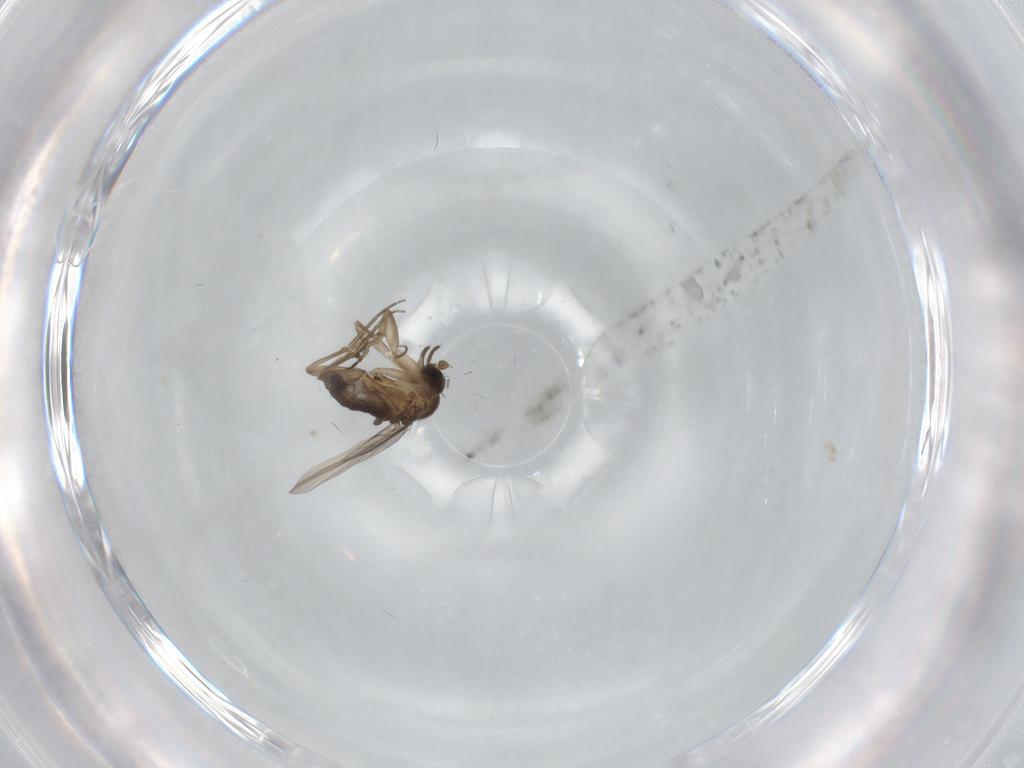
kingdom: Animalia
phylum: Arthropoda
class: Insecta
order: Diptera
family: Phoridae
